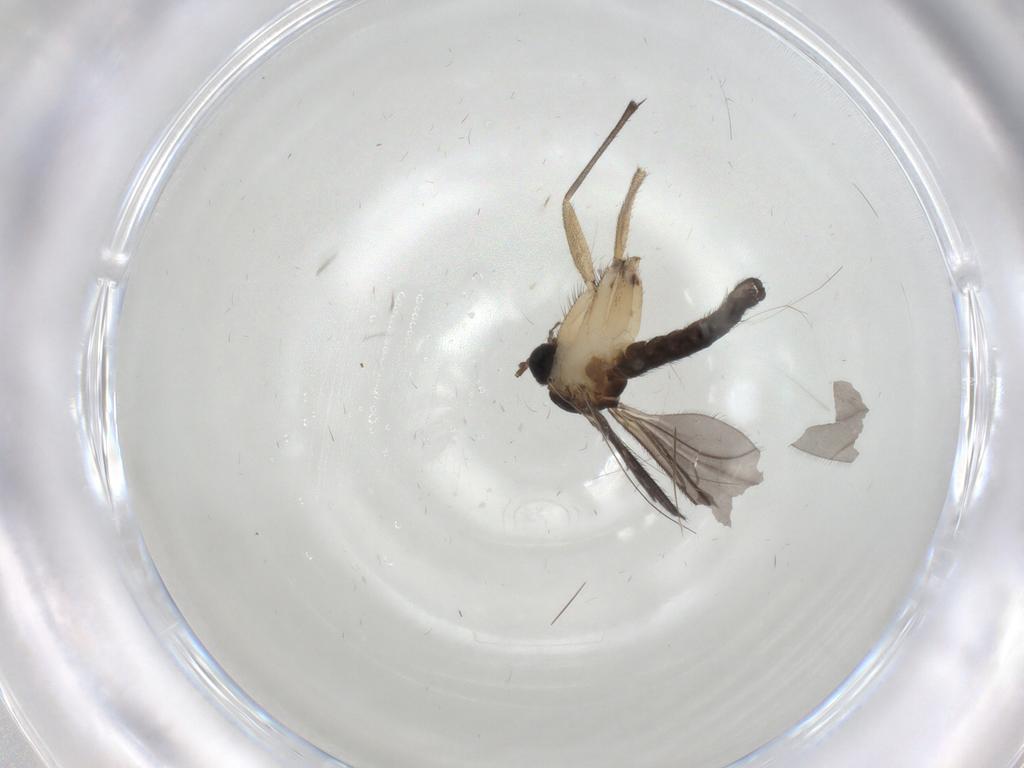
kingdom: Animalia
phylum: Arthropoda
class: Insecta
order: Diptera
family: Sciaridae
